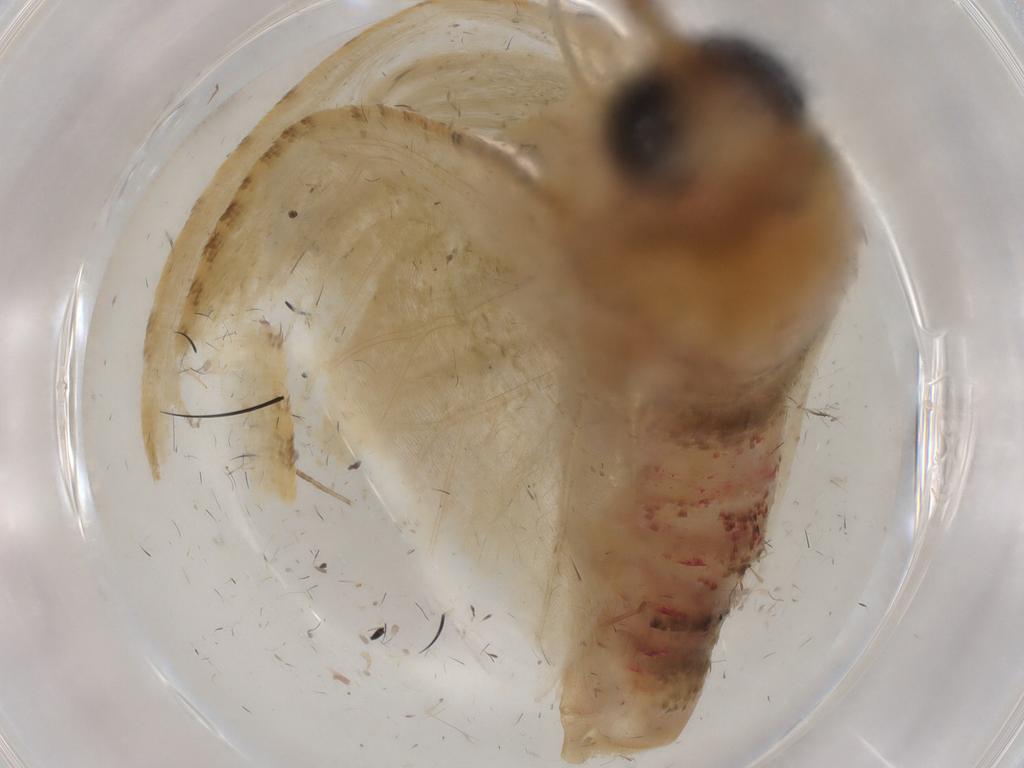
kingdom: Animalia
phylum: Arthropoda
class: Insecta
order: Lepidoptera
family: Geometridae
